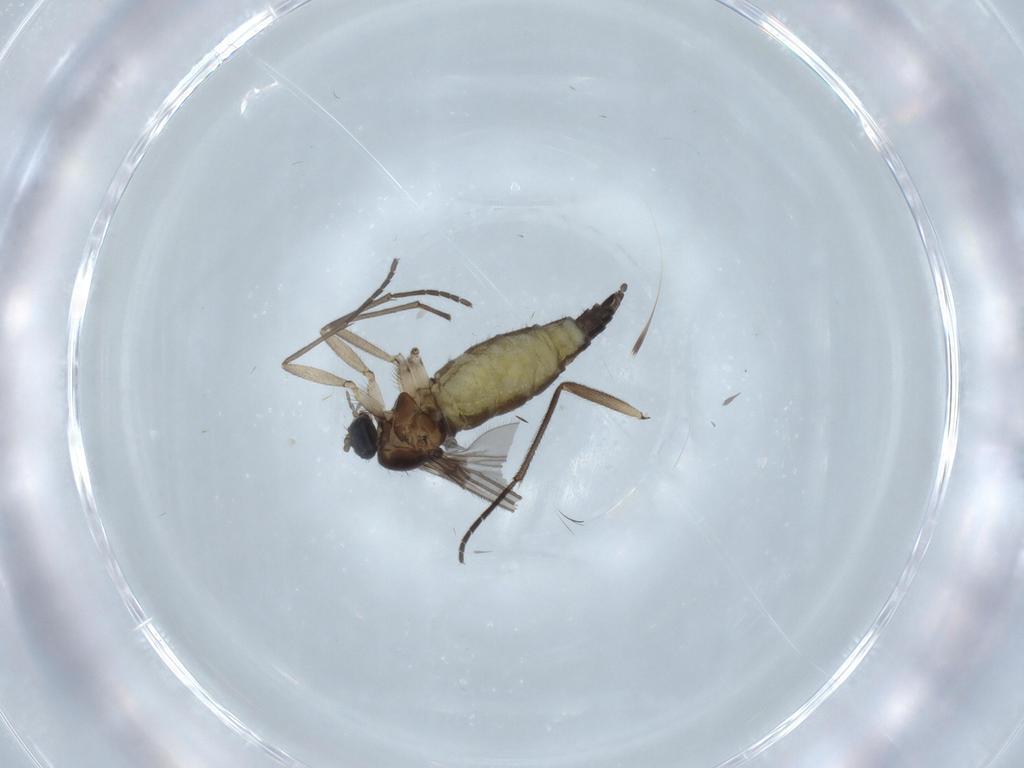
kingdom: Animalia
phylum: Arthropoda
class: Insecta
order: Diptera
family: Sciaridae
